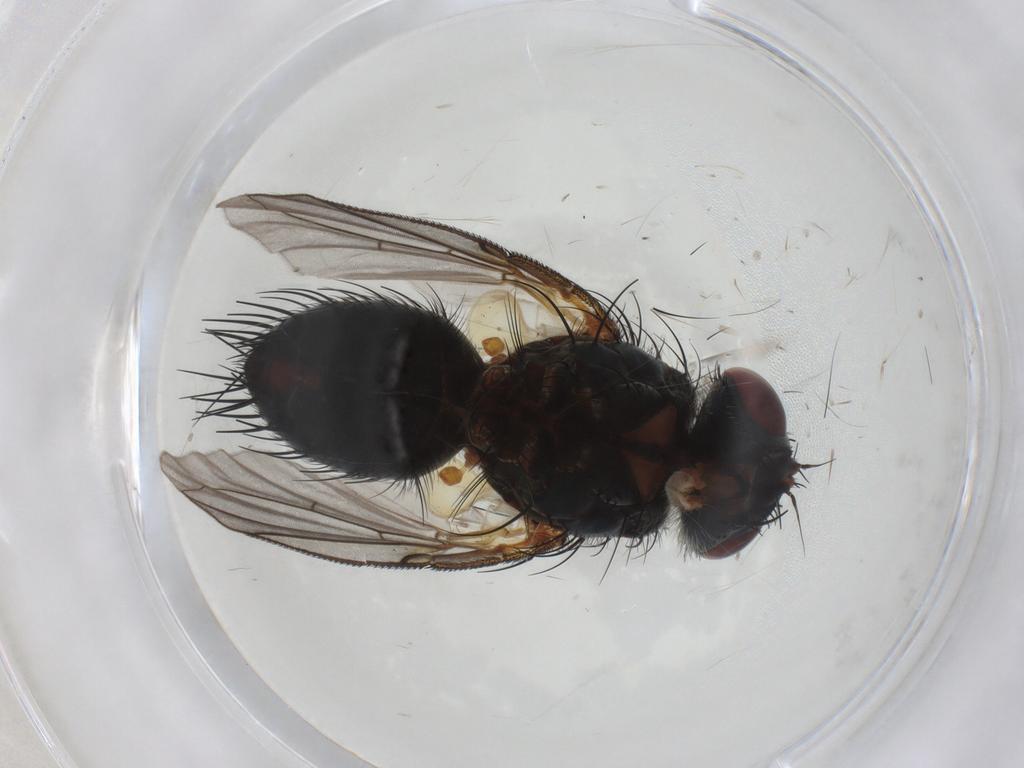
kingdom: Animalia
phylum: Arthropoda
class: Insecta
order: Diptera
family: Tachinidae
